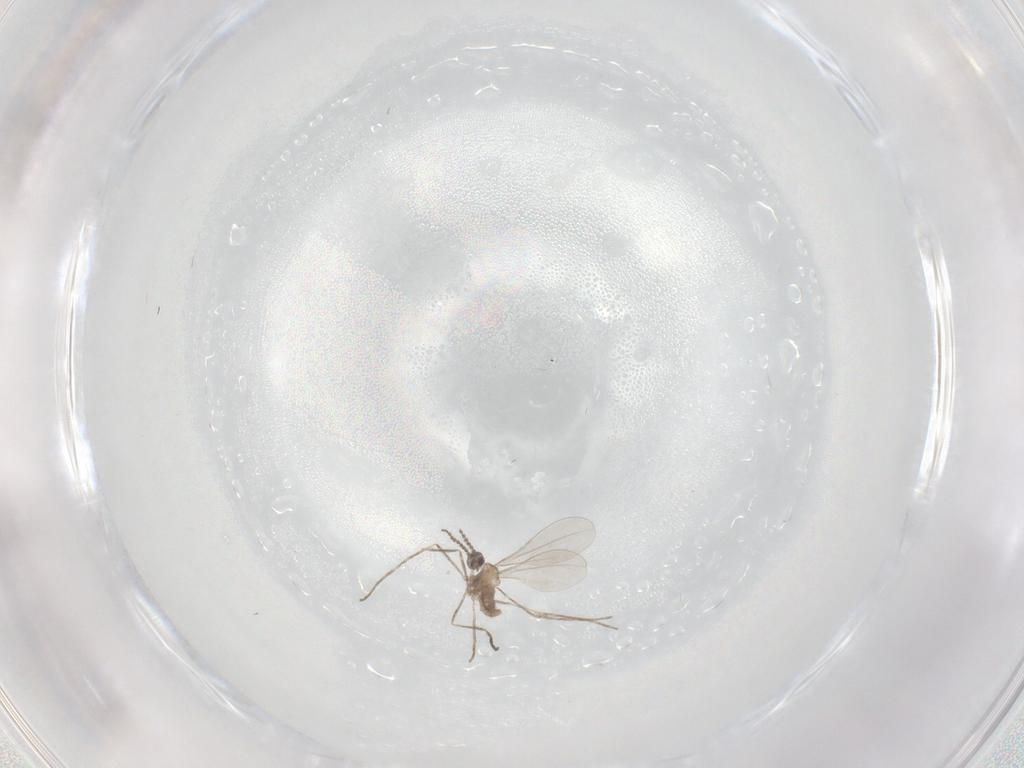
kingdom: Animalia
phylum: Arthropoda
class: Insecta
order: Diptera
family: Cecidomyiidae
